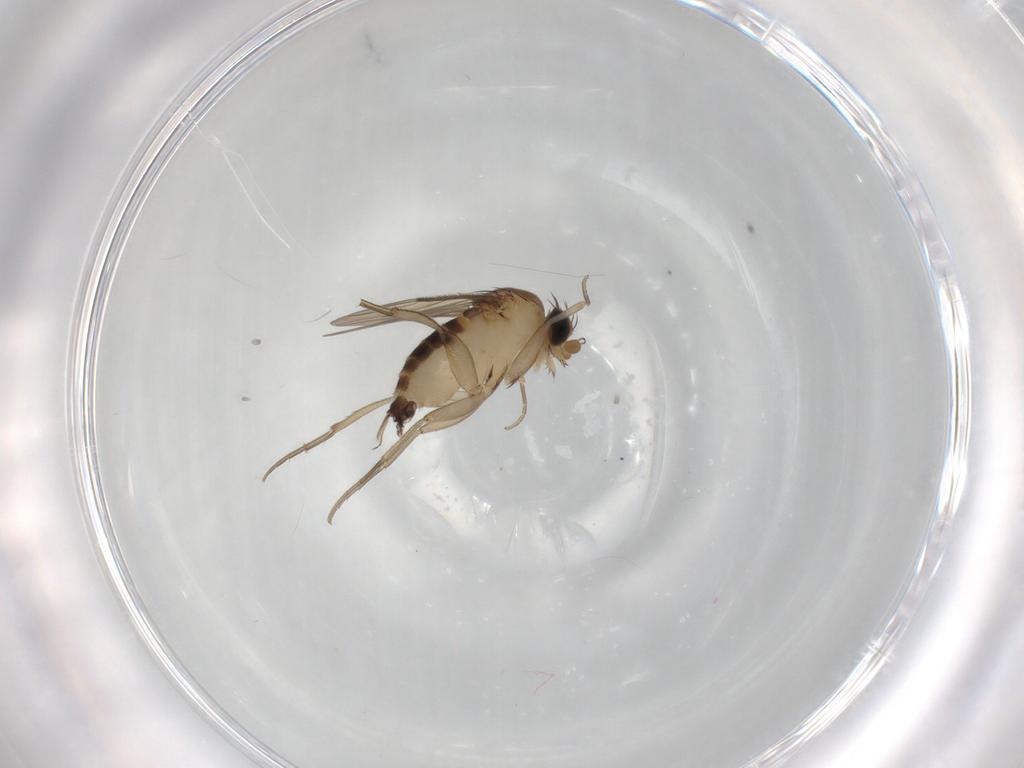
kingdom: Animalia
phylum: Arthropoda
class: Insecta
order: Diptera
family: Phoridae
